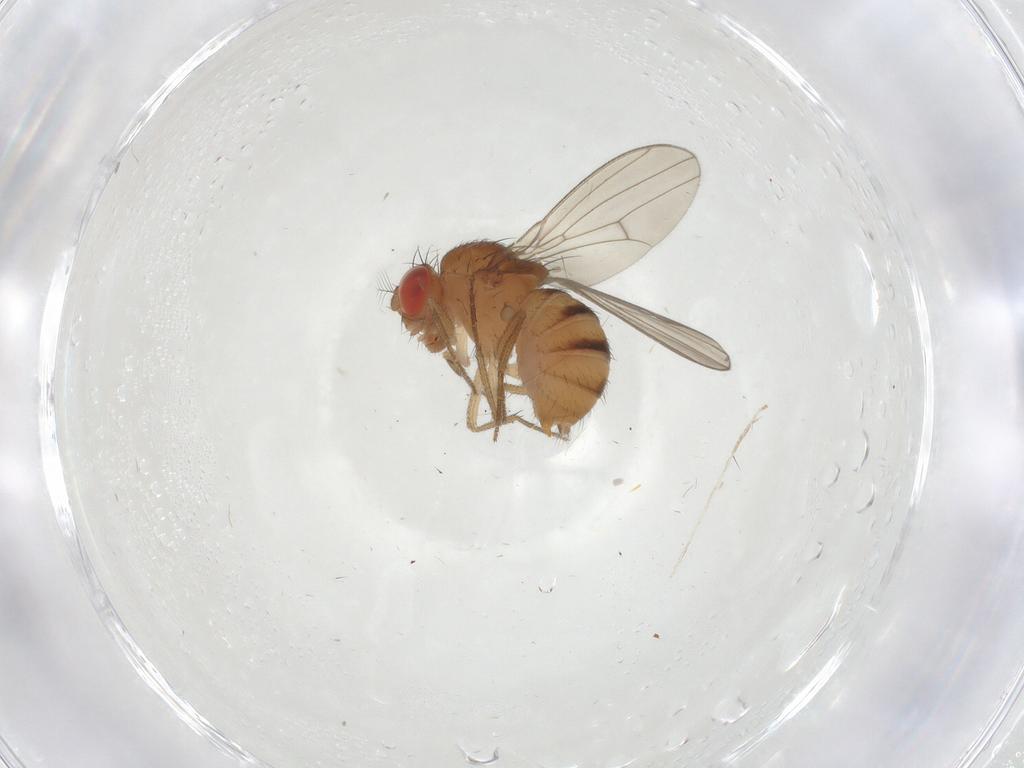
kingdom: Animalia
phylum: Arthropoda
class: Insecta
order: Diptera
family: Drosophilidae
